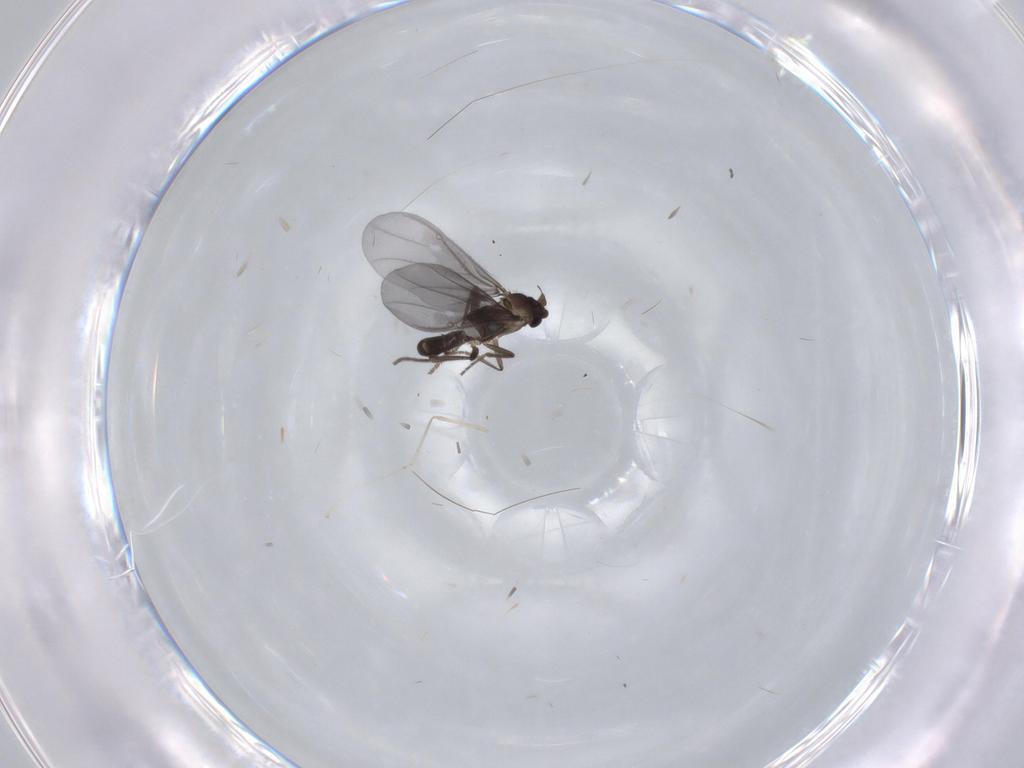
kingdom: Animalia
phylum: Arthropoda
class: Insecta
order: Diptera
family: Phoridae
